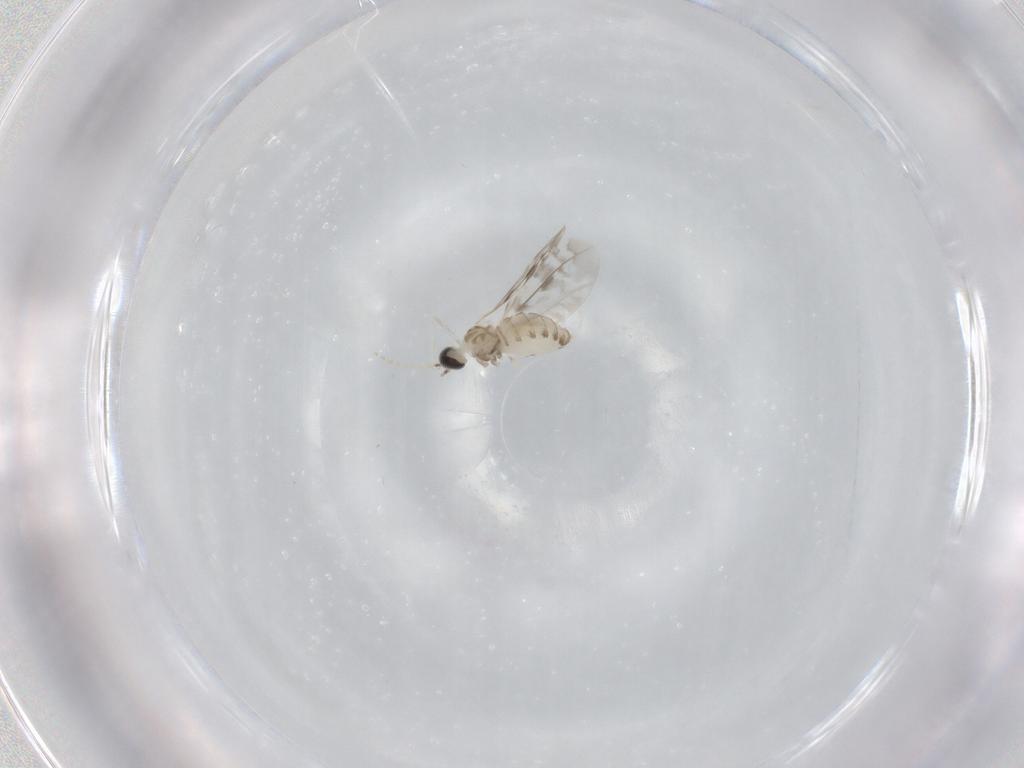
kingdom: Animalia
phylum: Arthropoda
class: Insecta
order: Diptera
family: Cecidomyiidae
